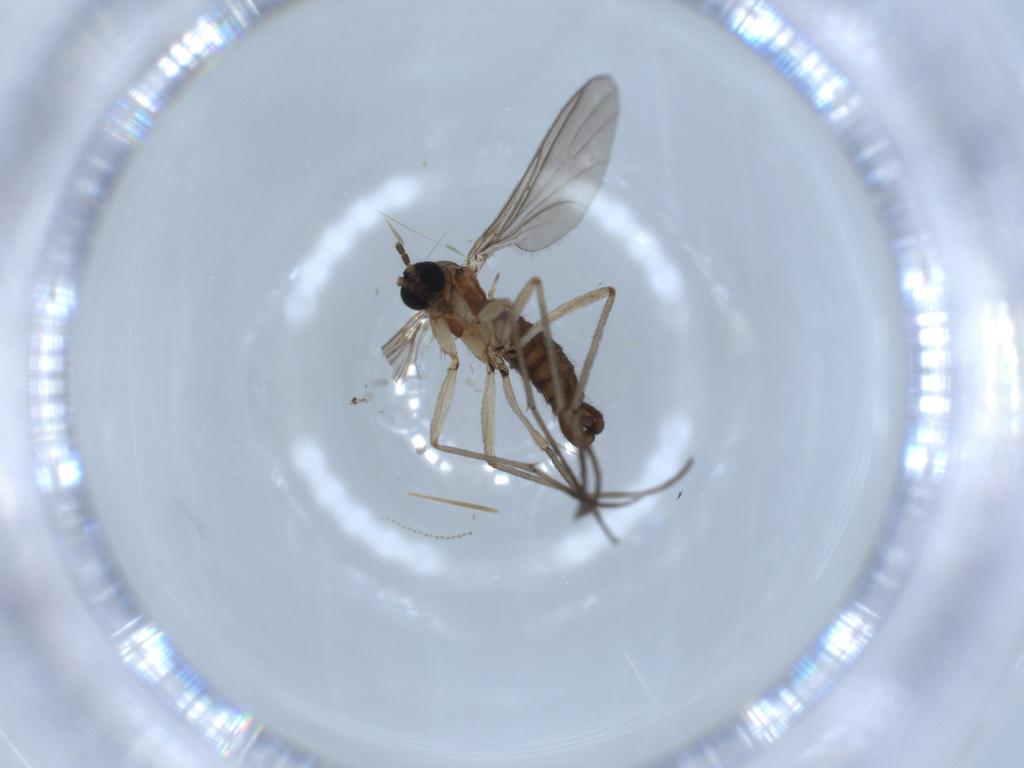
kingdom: Animalia
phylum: Arthropoda
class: Insecta
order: Diptera
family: Sciaridae
